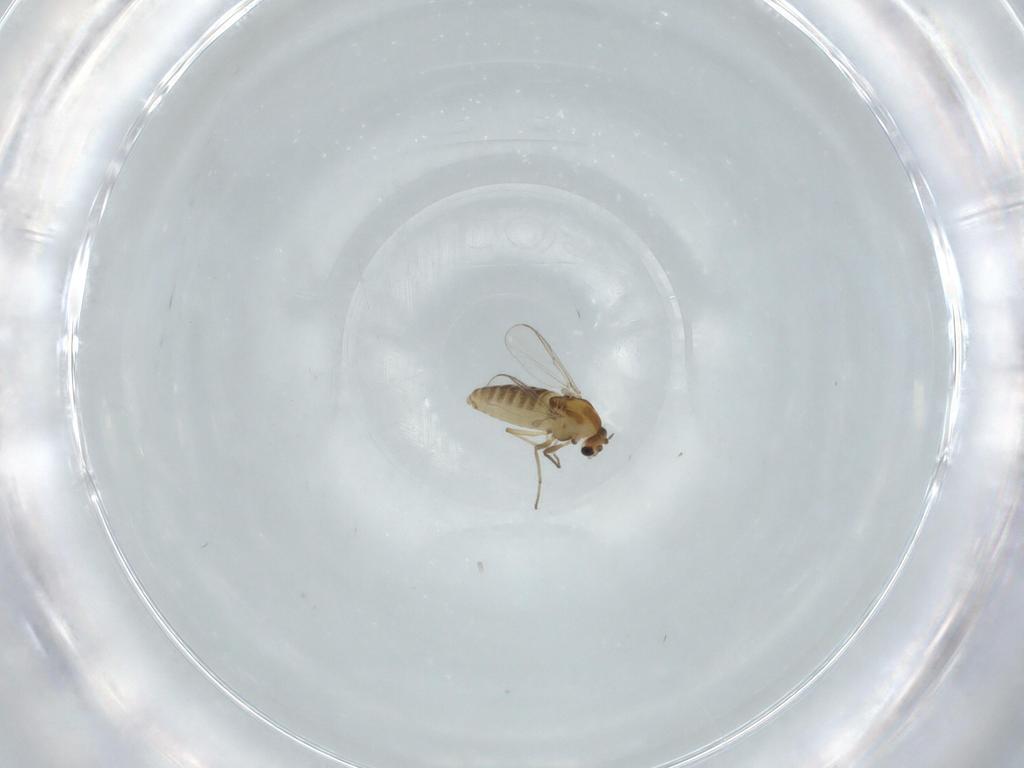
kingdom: Animalia
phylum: Arthropoda
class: Insecta
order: Diptera
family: Chironomidae
